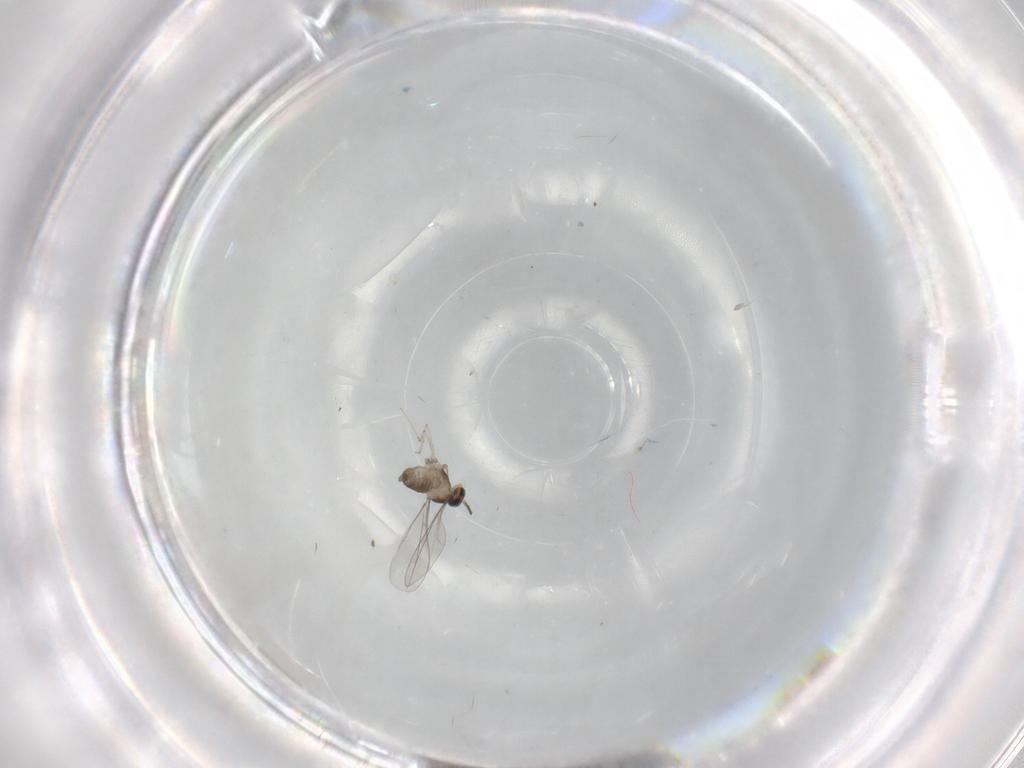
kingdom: Animalia
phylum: Arthropoda
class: Insecta
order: Diptera
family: Cecidomyiidae
